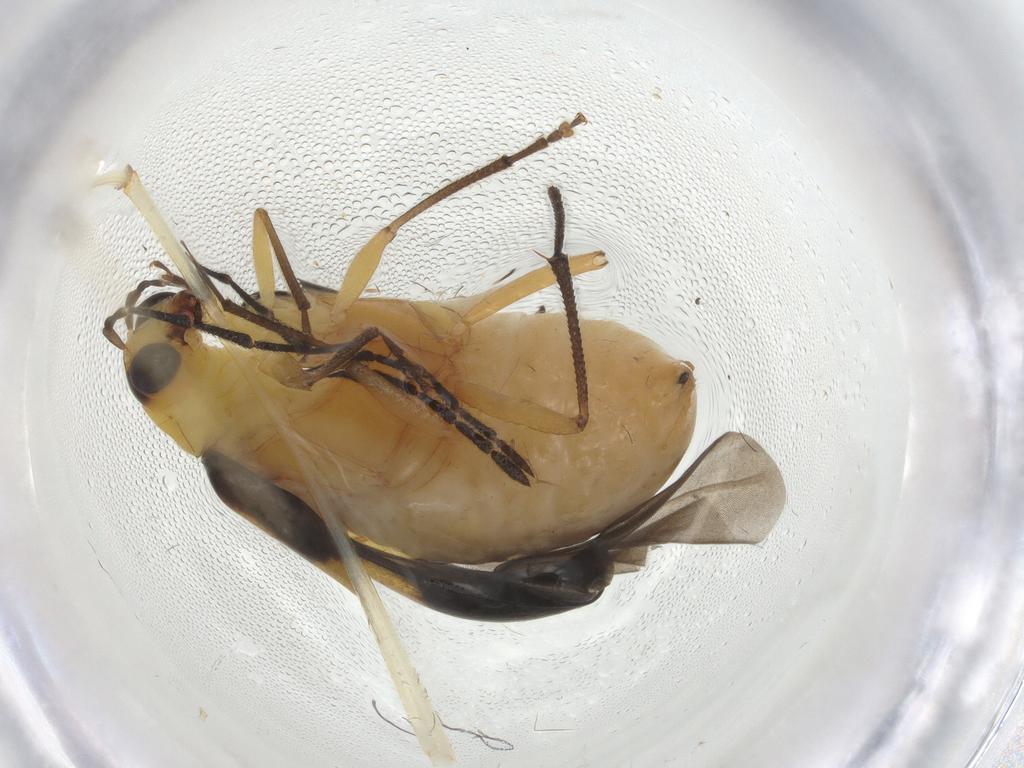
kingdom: Animalia
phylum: Arthropoda
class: Insecta
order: Coleoptera
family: Chrysomelidae
